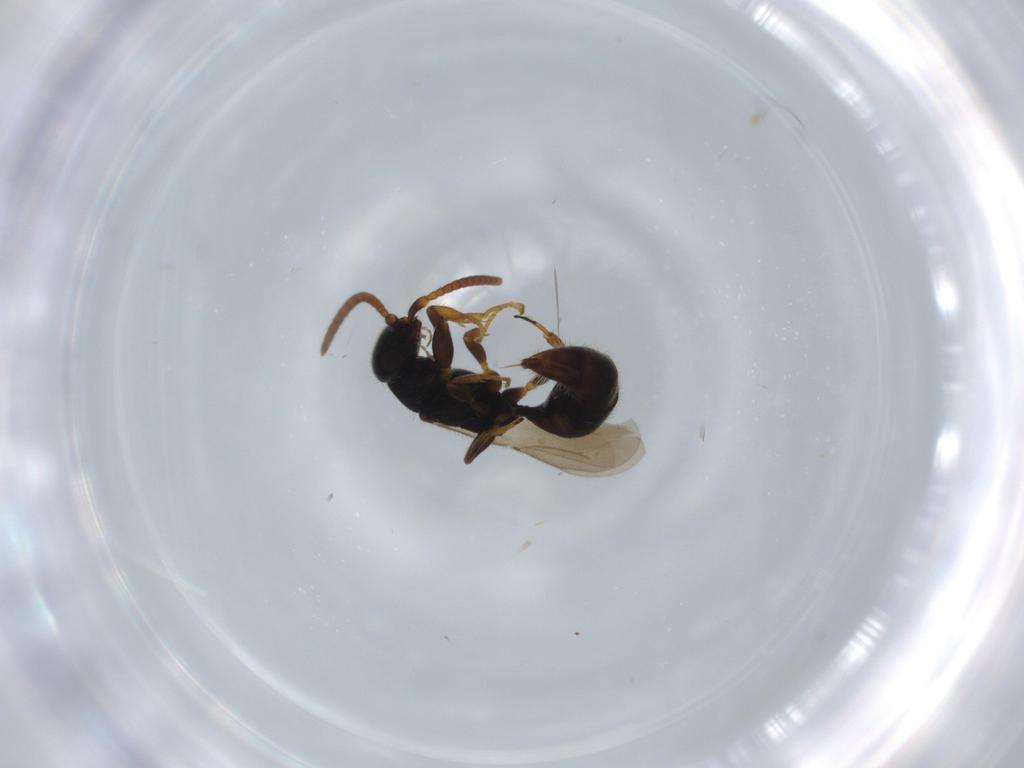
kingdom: Animalia
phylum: Arthropoda
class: Insecta
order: Hymenoptera
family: Bethylidae
